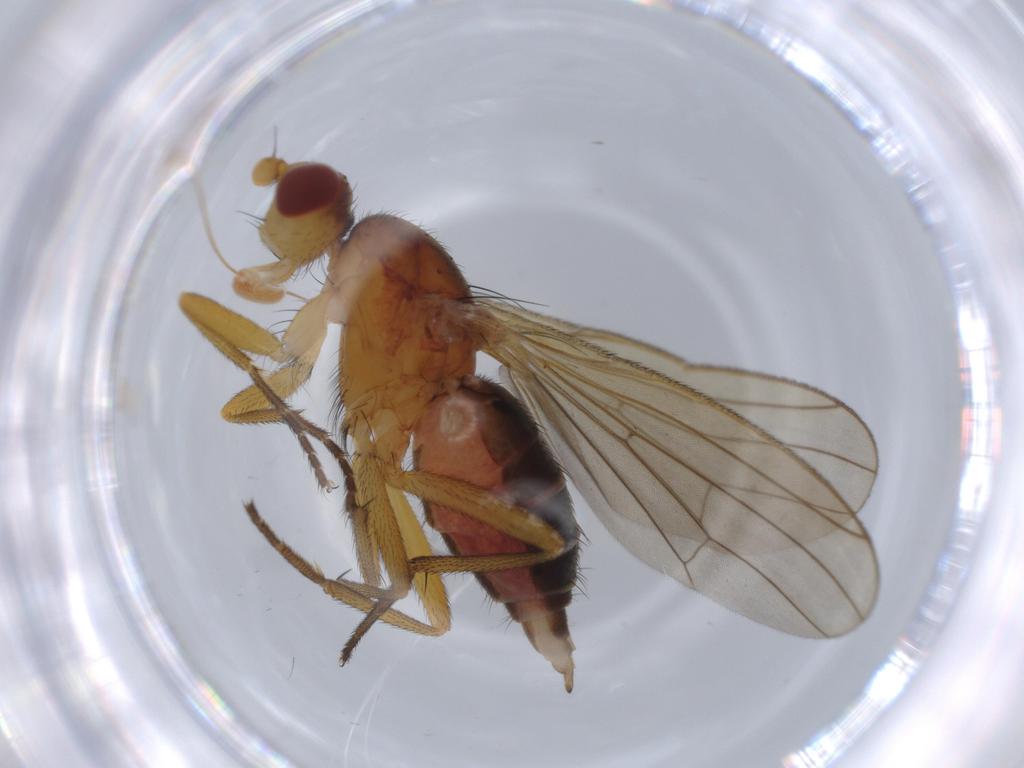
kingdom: Animalia
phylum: Arthropoda
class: Insecta
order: Diptera
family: Heleomyzidae
